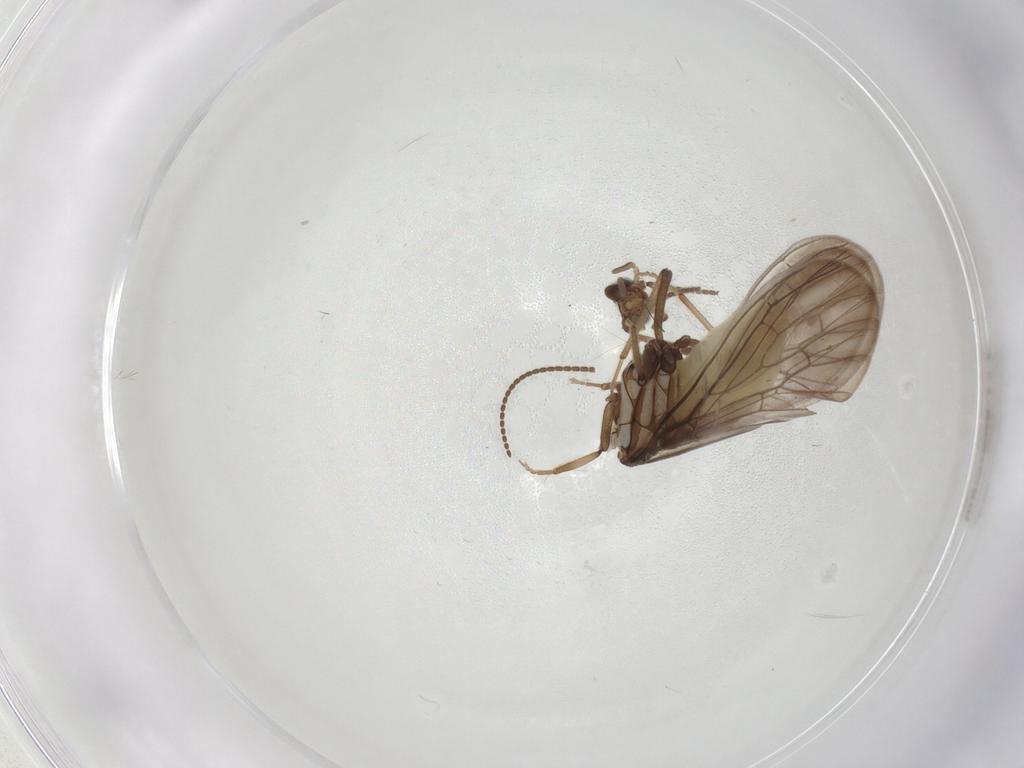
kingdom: Animalia
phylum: Arthropoda
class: Insecta
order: Neuroptera
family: Coniopterygidae
